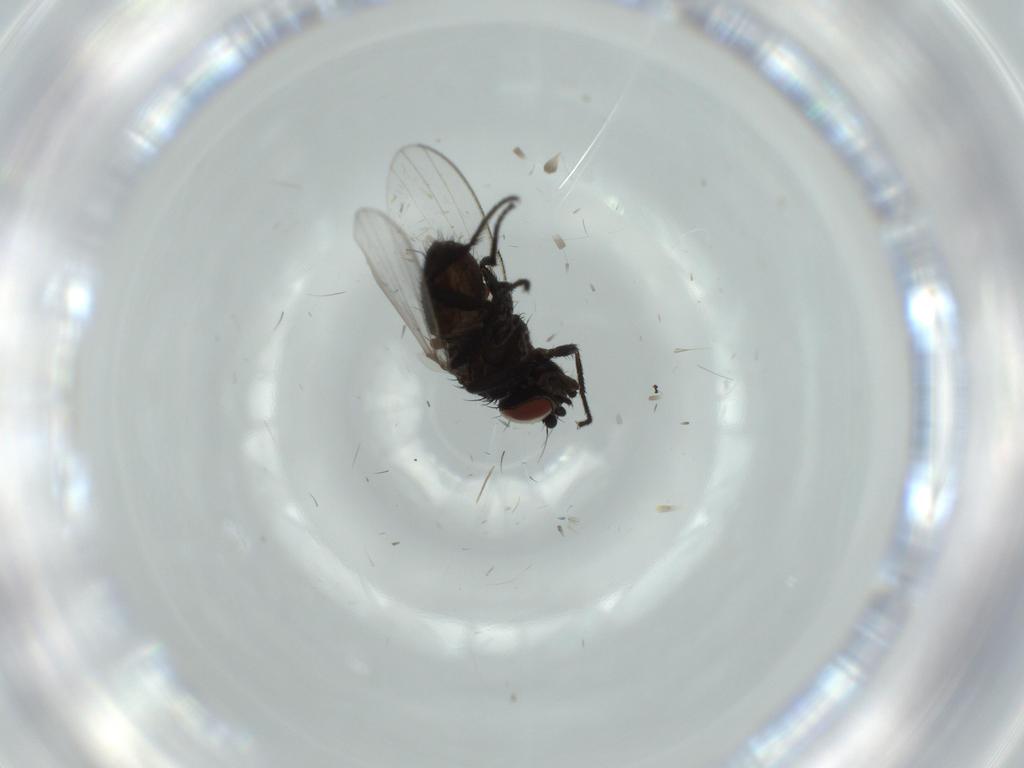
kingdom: Animalia
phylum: Arthropoda
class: Insecta
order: Diptera
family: Milichiidae
